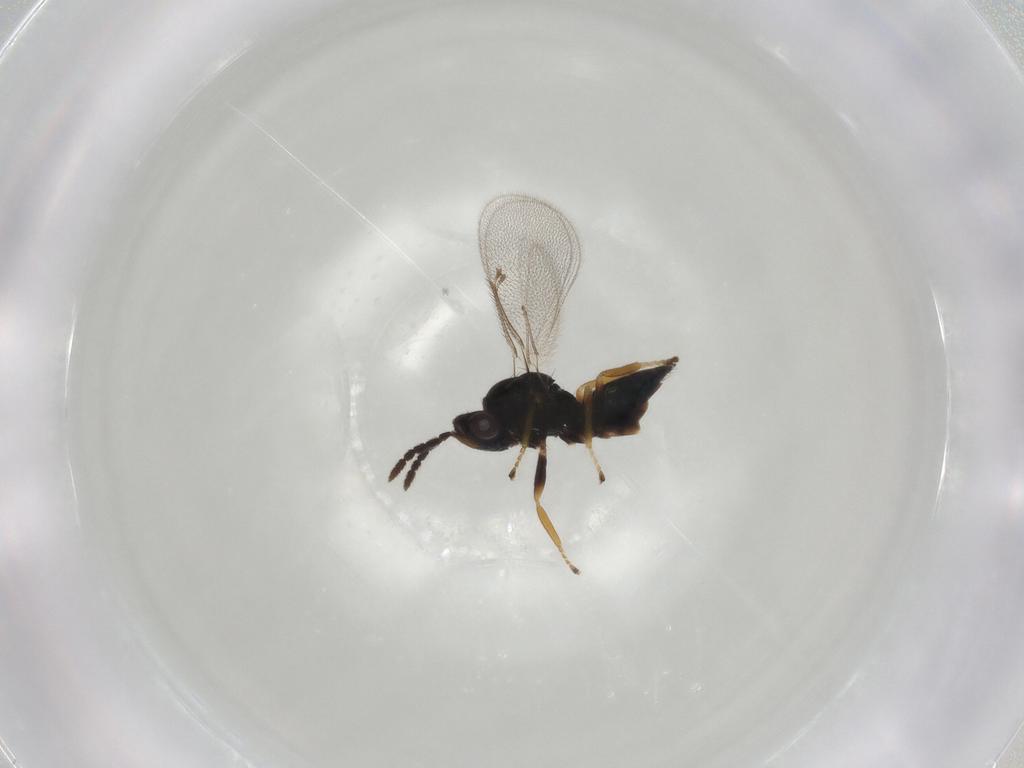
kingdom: Animalia
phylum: Arthropoda
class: Insecta
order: Hymenoptera
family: Eulophidae
